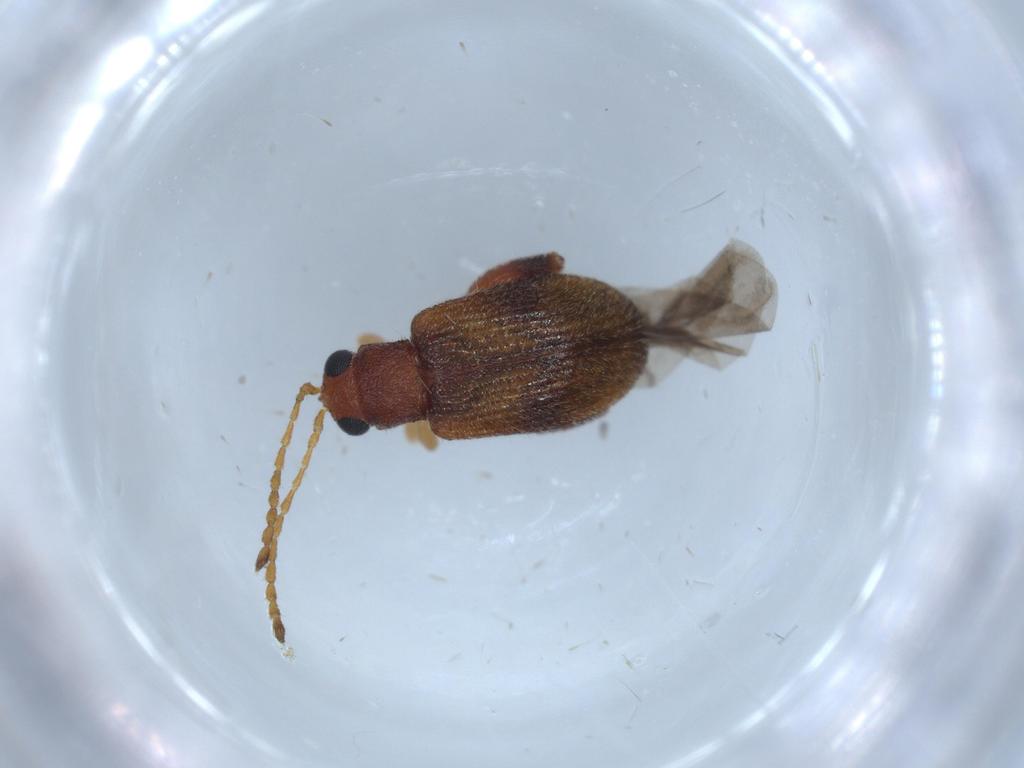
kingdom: Animalia
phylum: Arthropoda
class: Insecta
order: Coleoptera
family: Chrysomelidae
